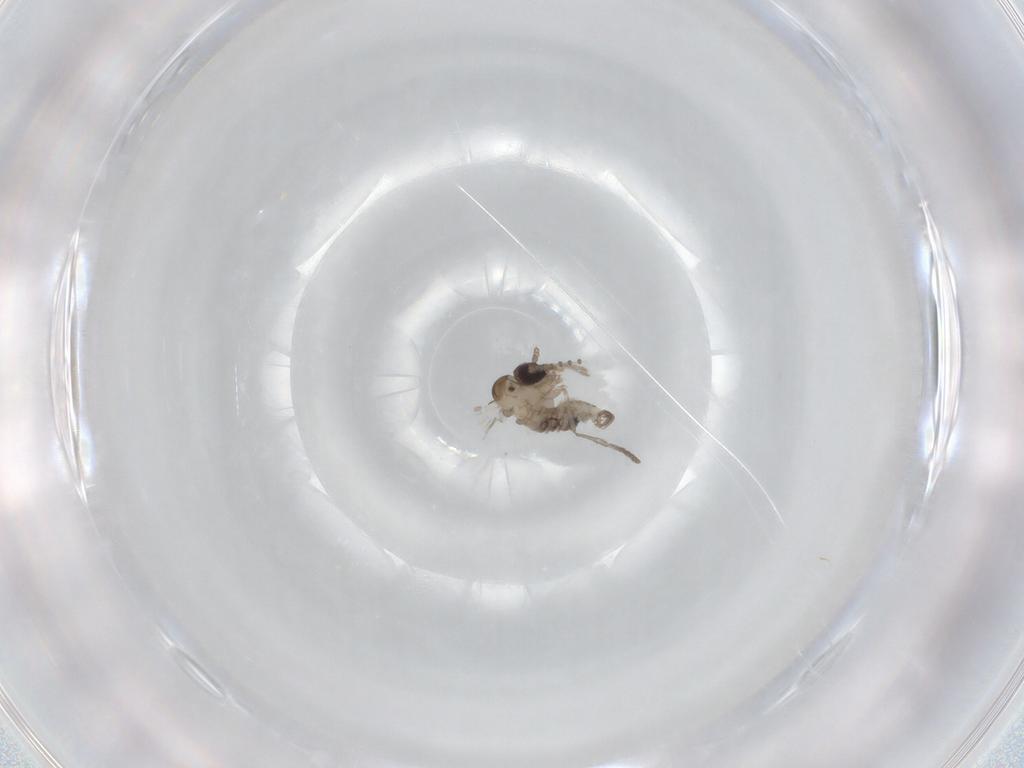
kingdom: Animalia
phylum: Arthropoda
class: Insecta
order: Diptera
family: Psychodidae
